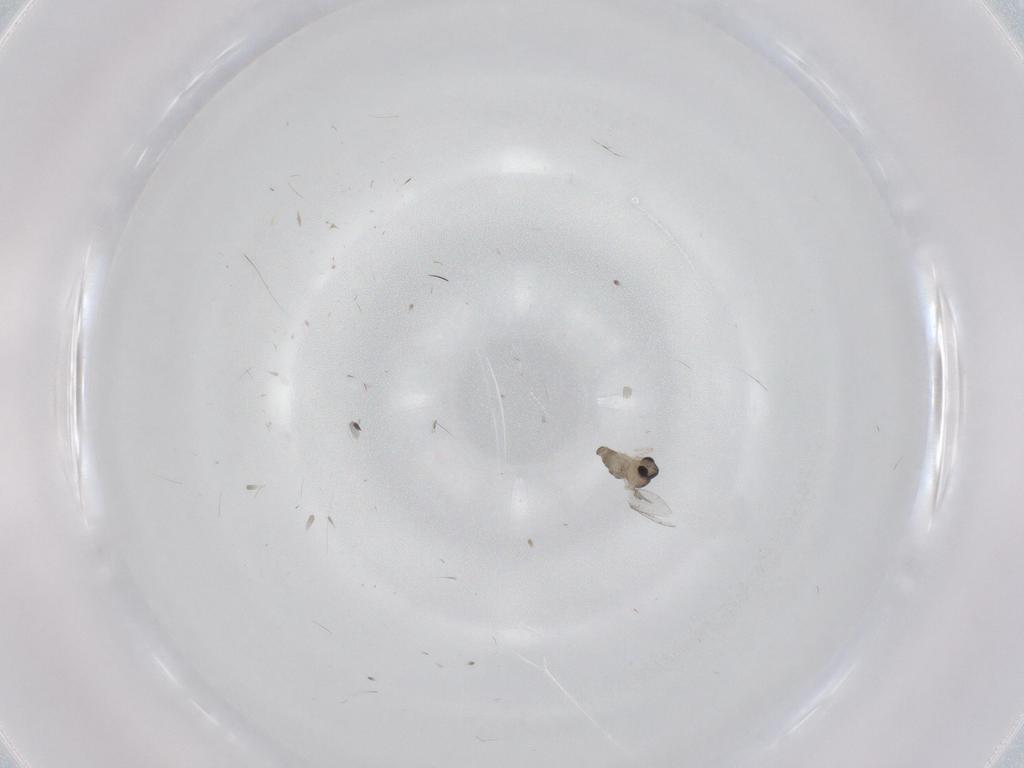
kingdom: Animalia
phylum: Arthropoda
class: Insecta
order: Diptera
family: Cecidomyiidae
